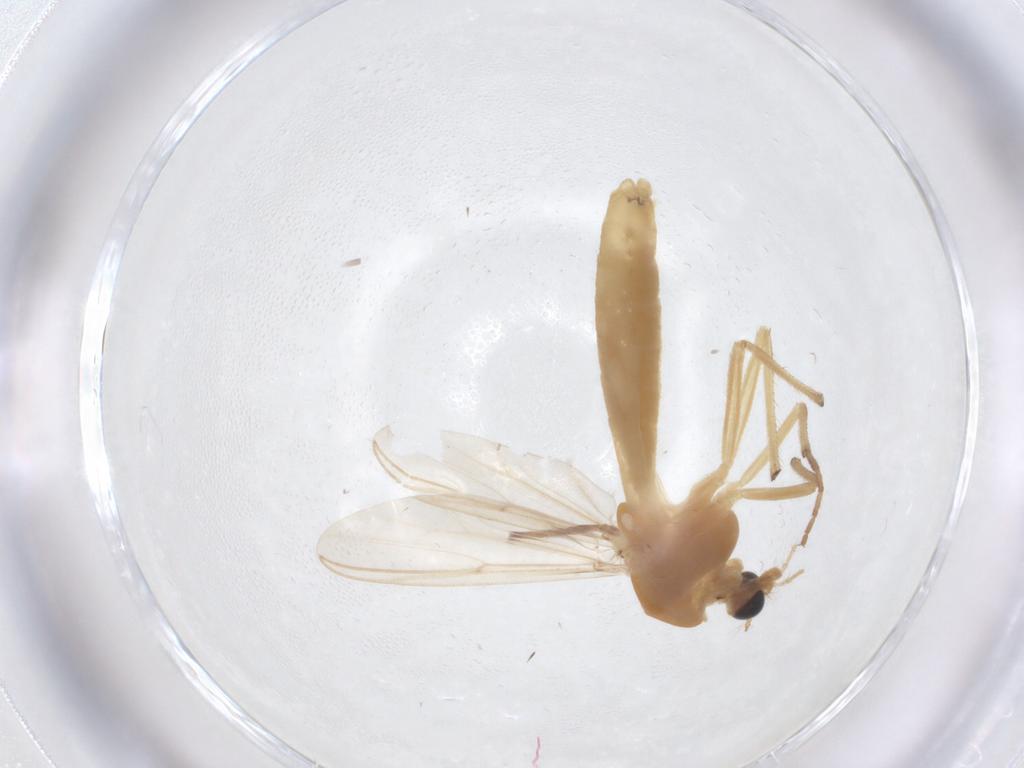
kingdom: Animalia
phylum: Arthropoda
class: Insecta
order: Diptera
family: Chironomidae
